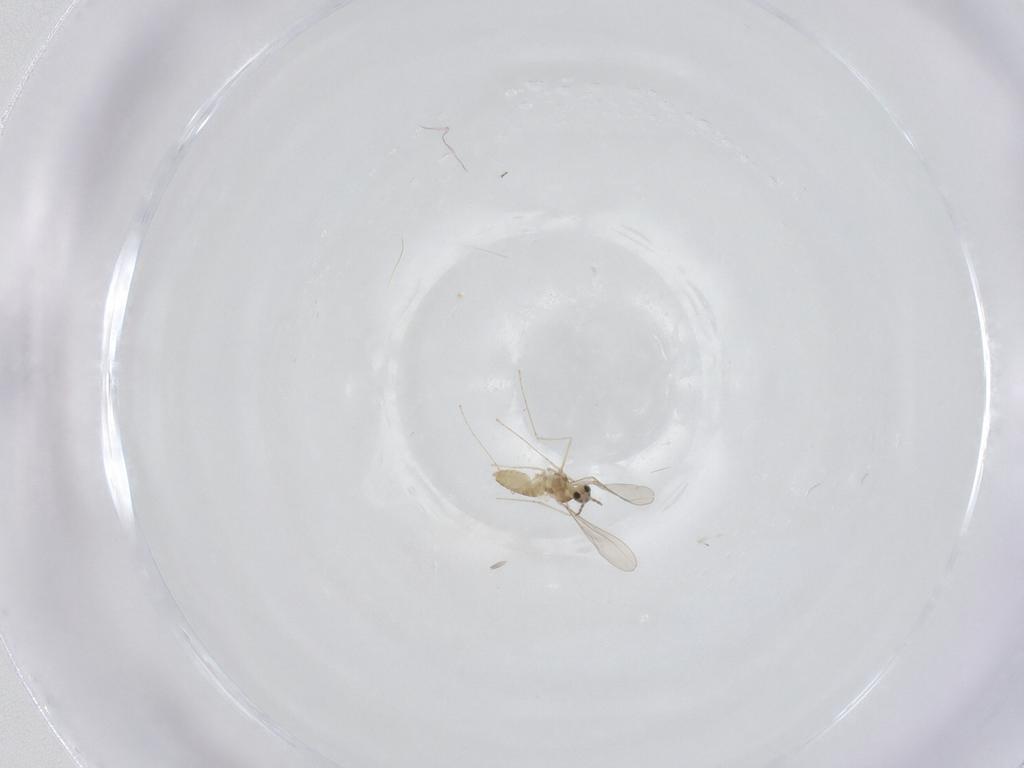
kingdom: Animalia
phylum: Arthropoda
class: Insecta
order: Diptera
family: Cecidomyiidae
